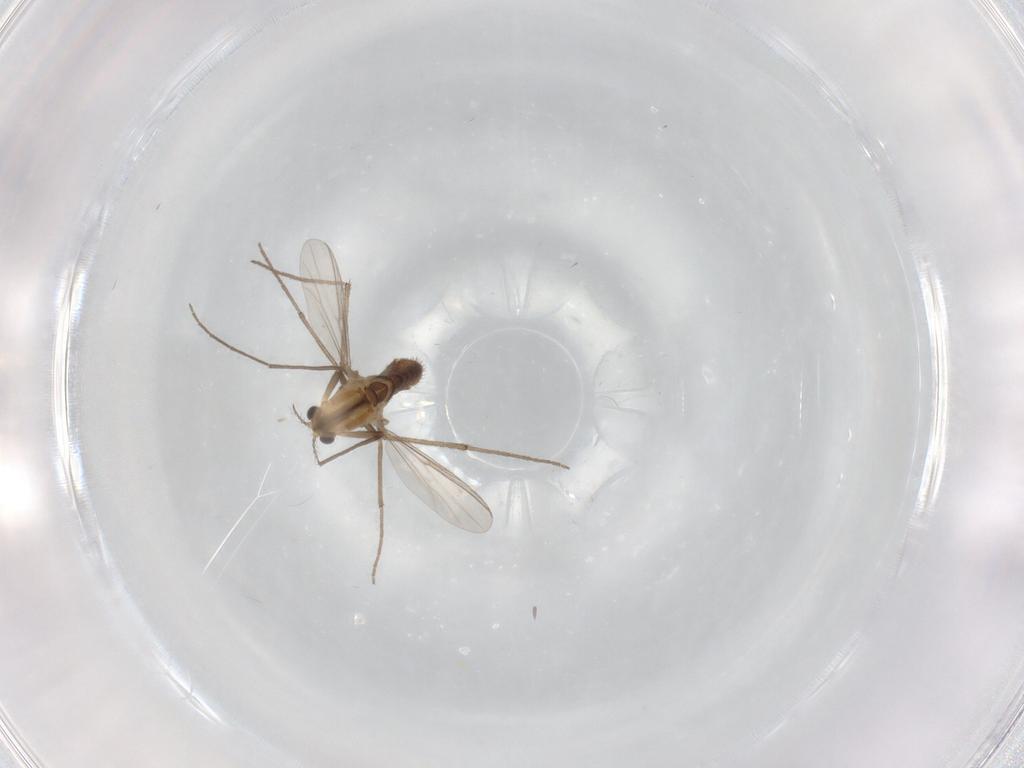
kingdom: Animalia
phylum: Arthropoda
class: Insecta
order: Diptera
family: Chironomidae
